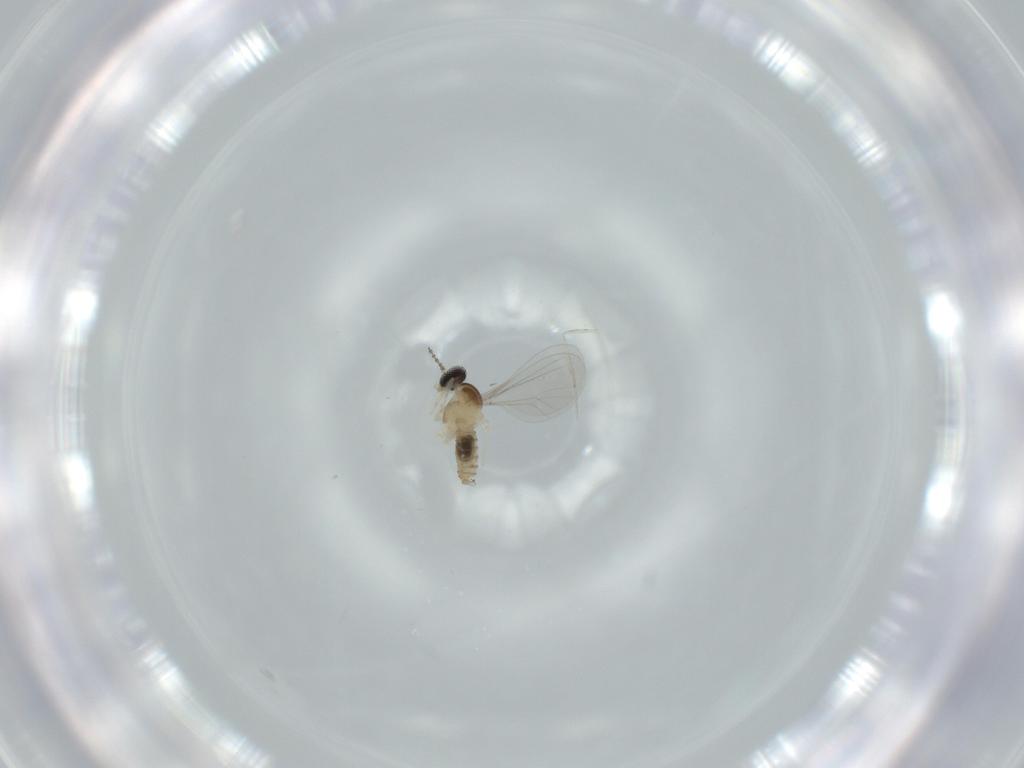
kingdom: Animalia
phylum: Arthropoda
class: Insecta
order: Diptera
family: Cecidomyiidae
